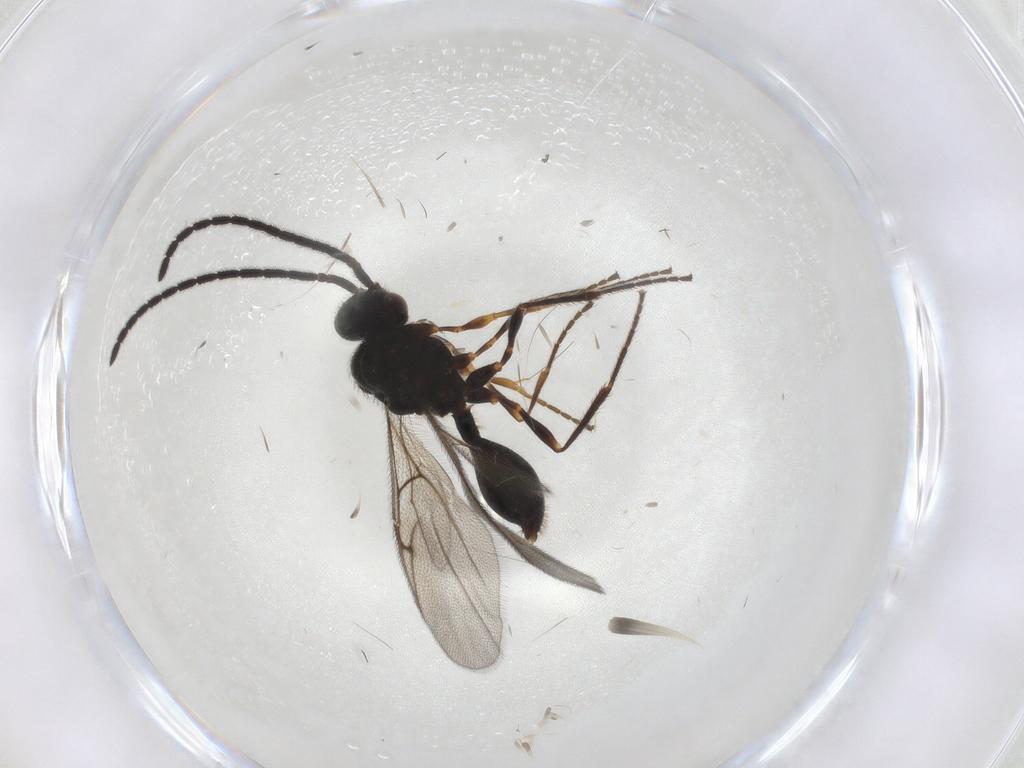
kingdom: Animalia
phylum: Arthropoda
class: Insecta
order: Hymenoptera
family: Diapriidae
